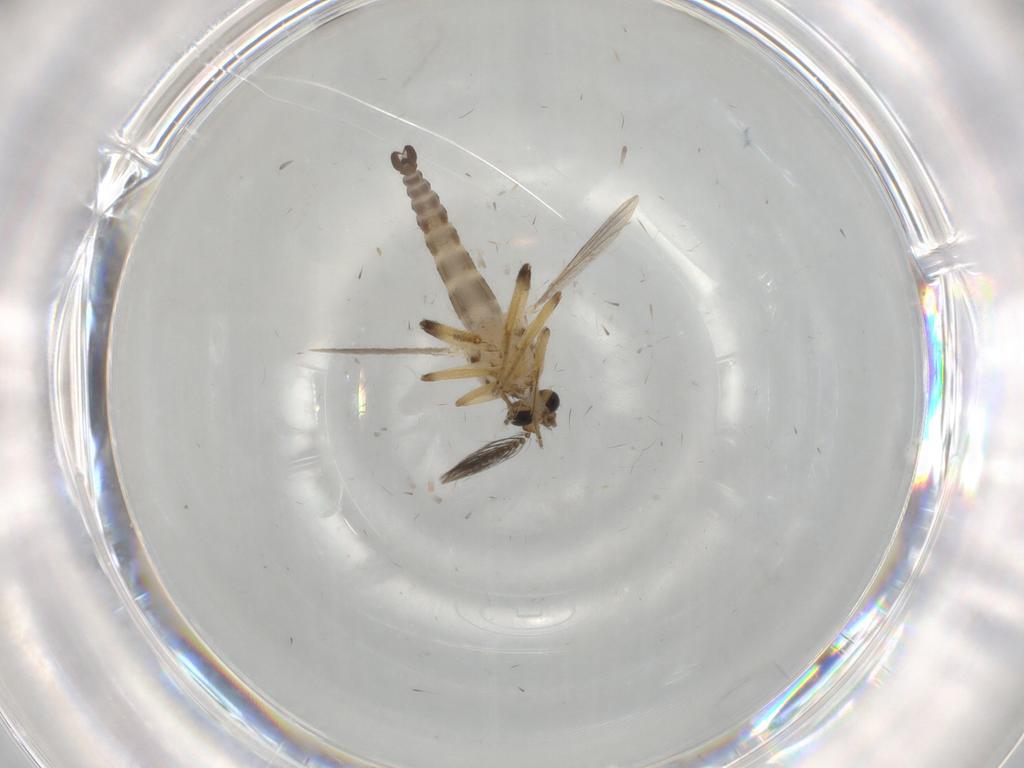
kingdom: Animalia
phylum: Arthropoda
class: Insecta
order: Diptera
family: Ceratopogonidae
